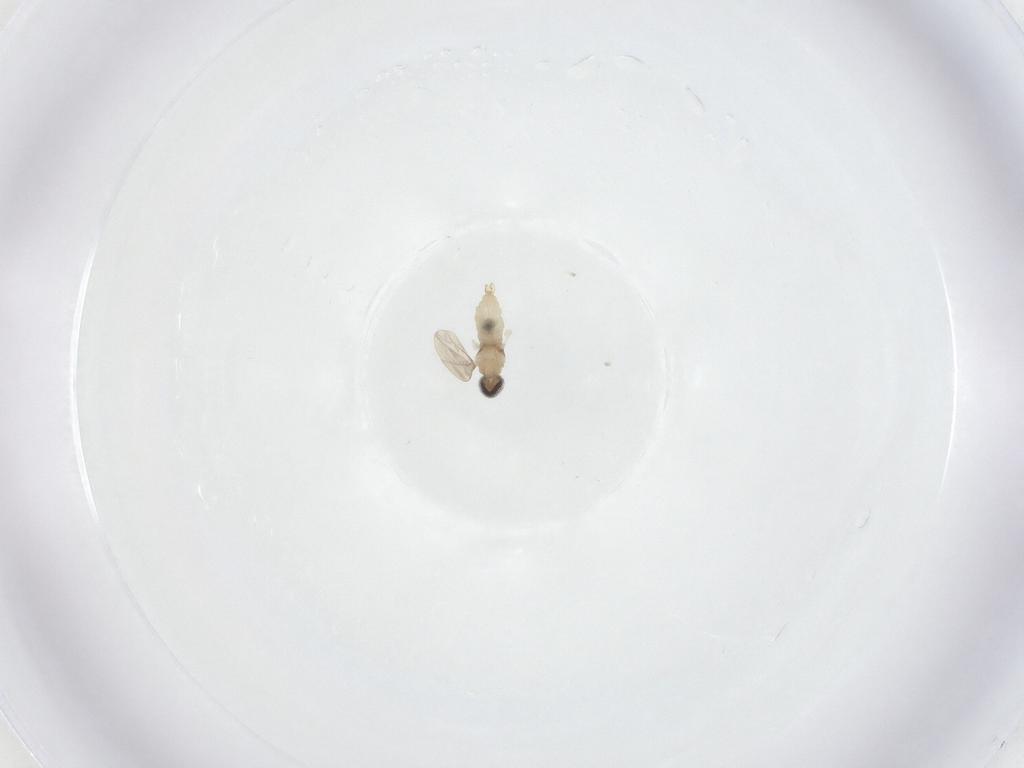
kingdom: Animalia
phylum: Arthropoda
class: Insecta
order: Diptera
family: Cecidomyiidae
